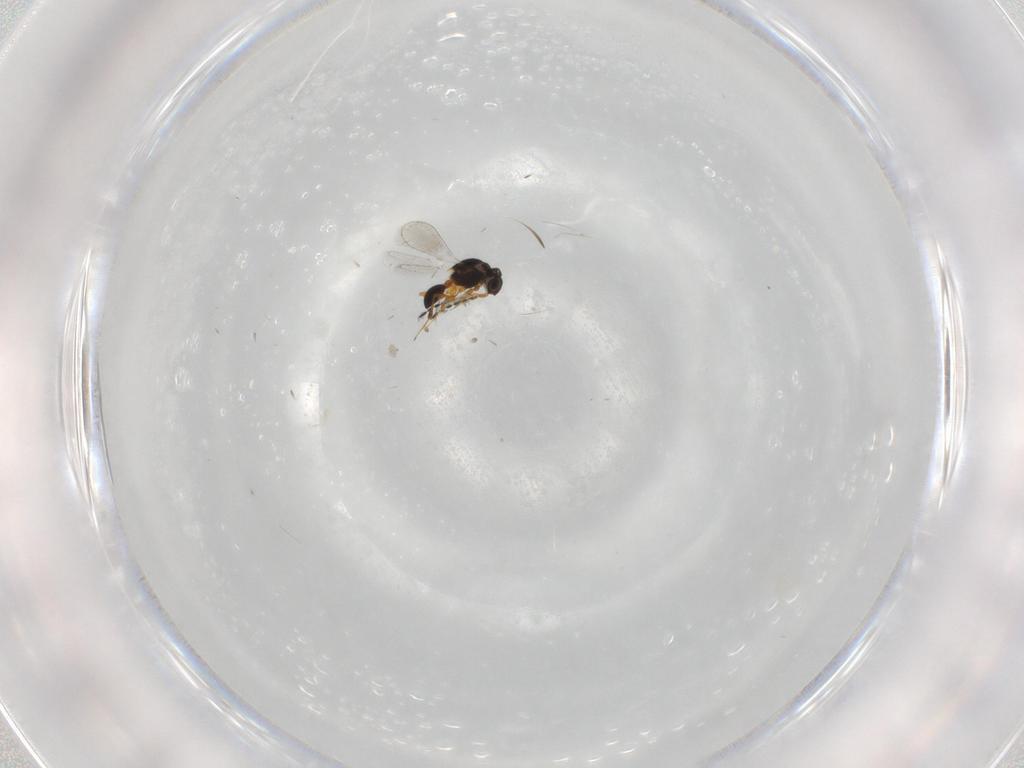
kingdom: Animalia
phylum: Arthropoda
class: Insecta
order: Hymenoptera
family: Platygastridae
